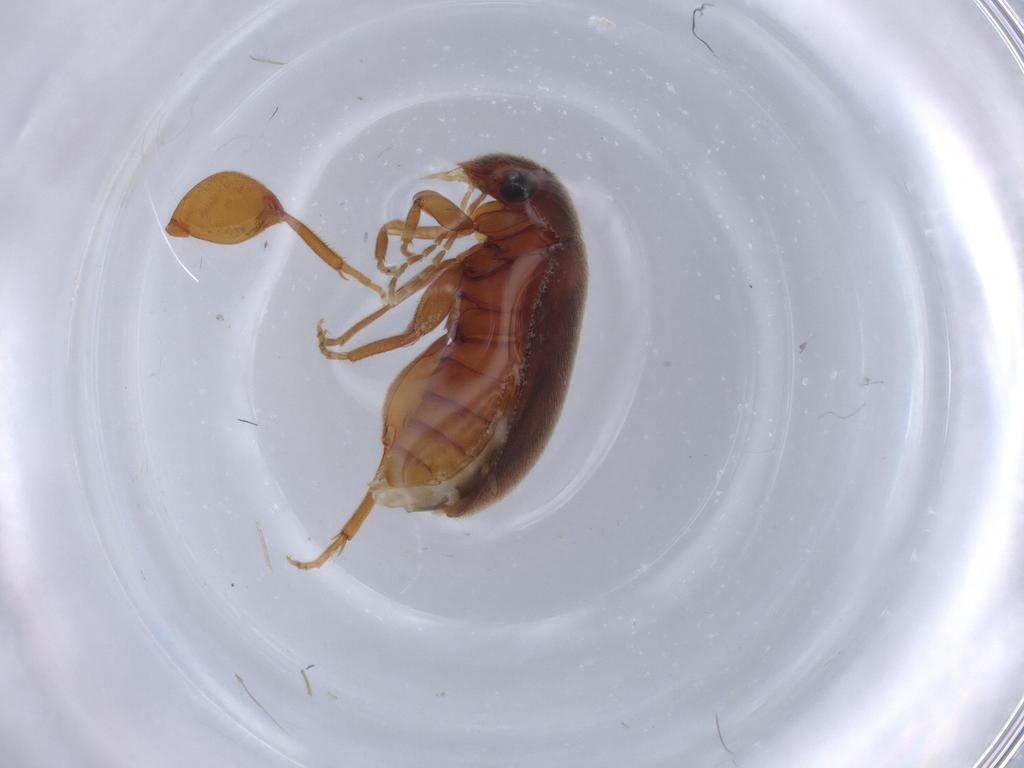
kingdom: Animalia
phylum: Arthropoda
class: Insecta
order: Coleoptera
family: Scirtidae
